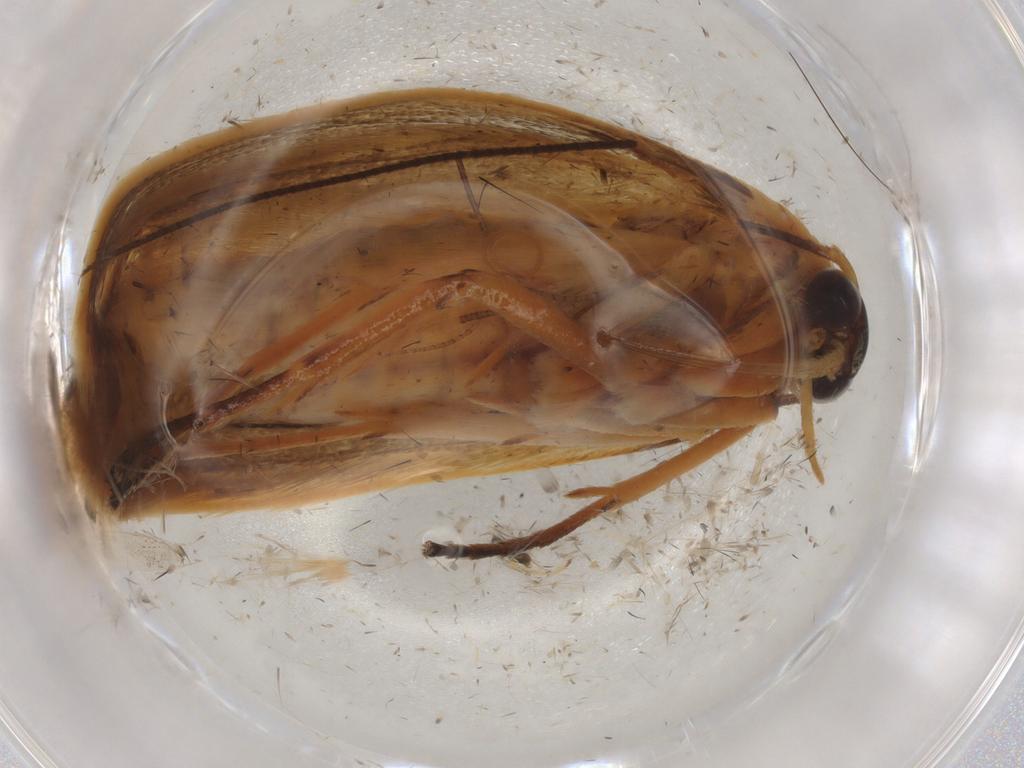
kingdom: Animalia
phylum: Arthropoda
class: Insecta
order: Lepidoptera
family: Elachistidae
